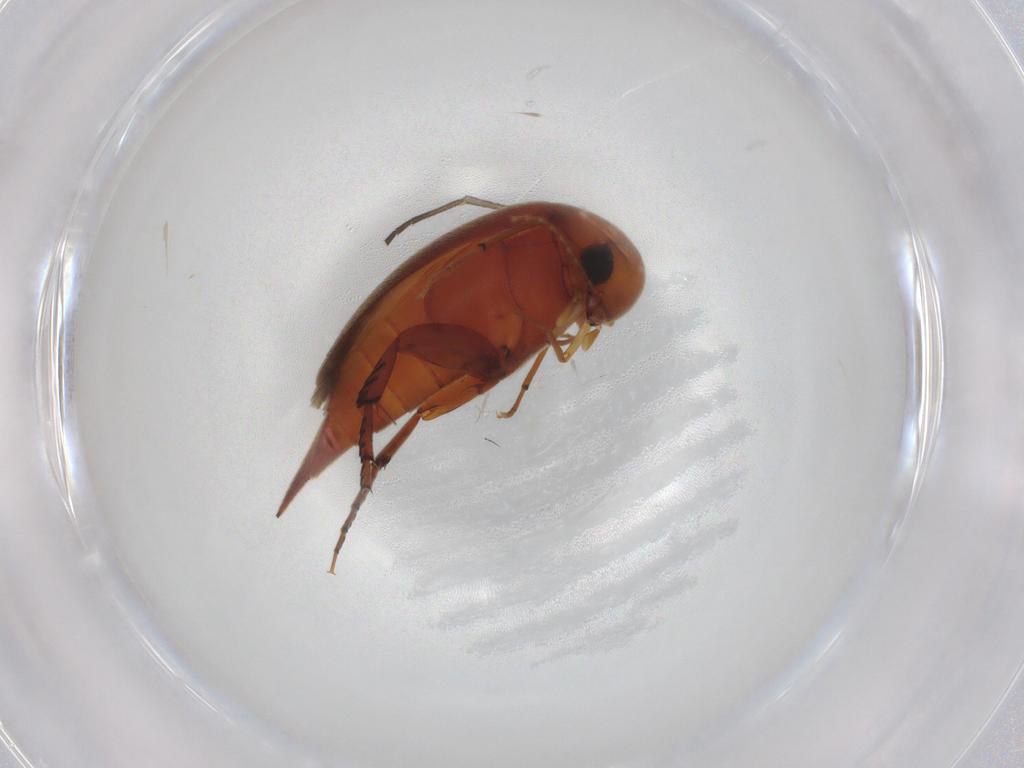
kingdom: Animalia
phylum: Arthropoda
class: Insecta
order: Coleoptera
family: Mordellidae
